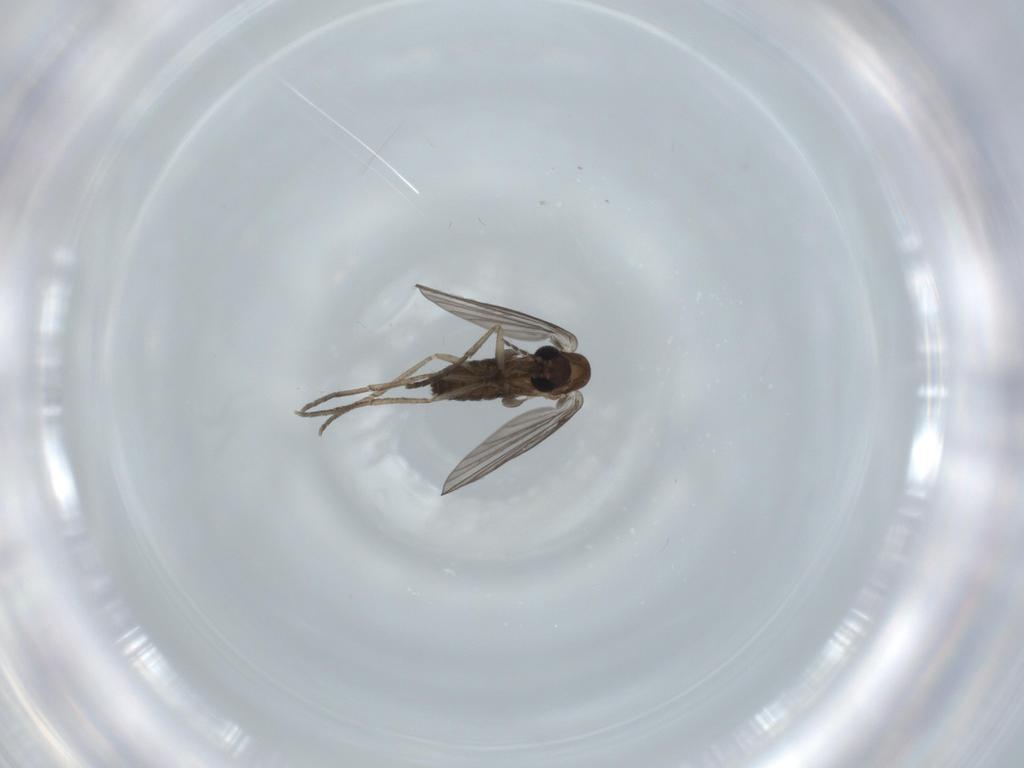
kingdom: Animalia
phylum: Arthropoda
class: Insecta
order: Diptera
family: Psychodidae
